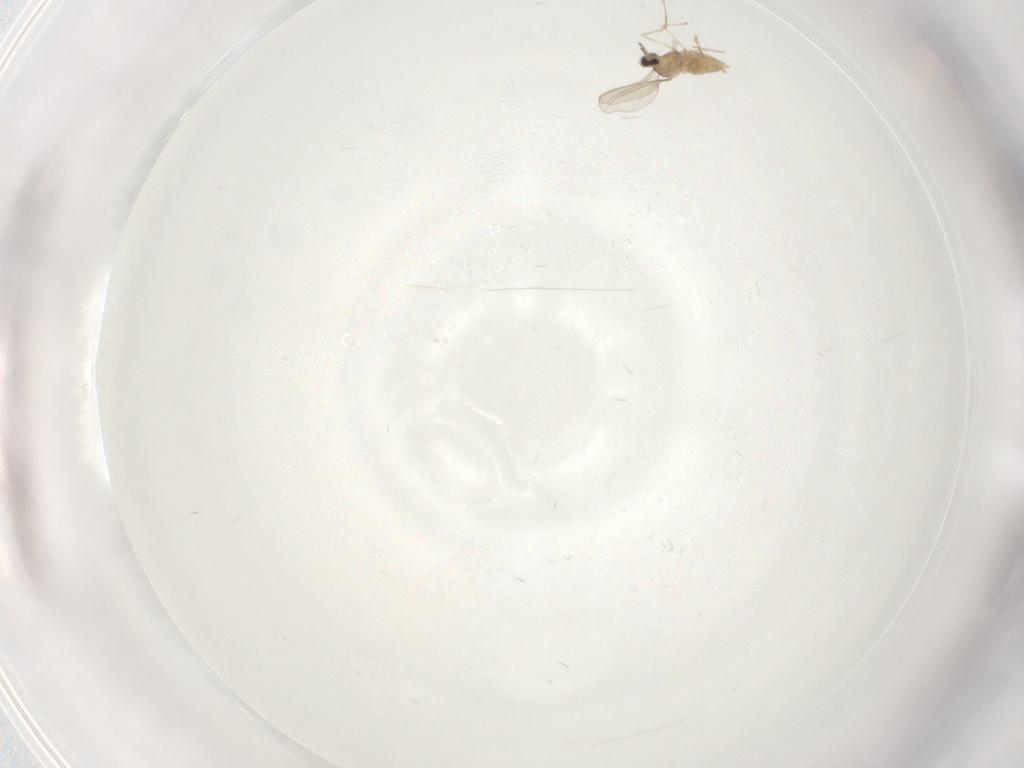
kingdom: Animalia
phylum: Arthropoda
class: Insecta
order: Diptera
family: Cecidomyiidae
